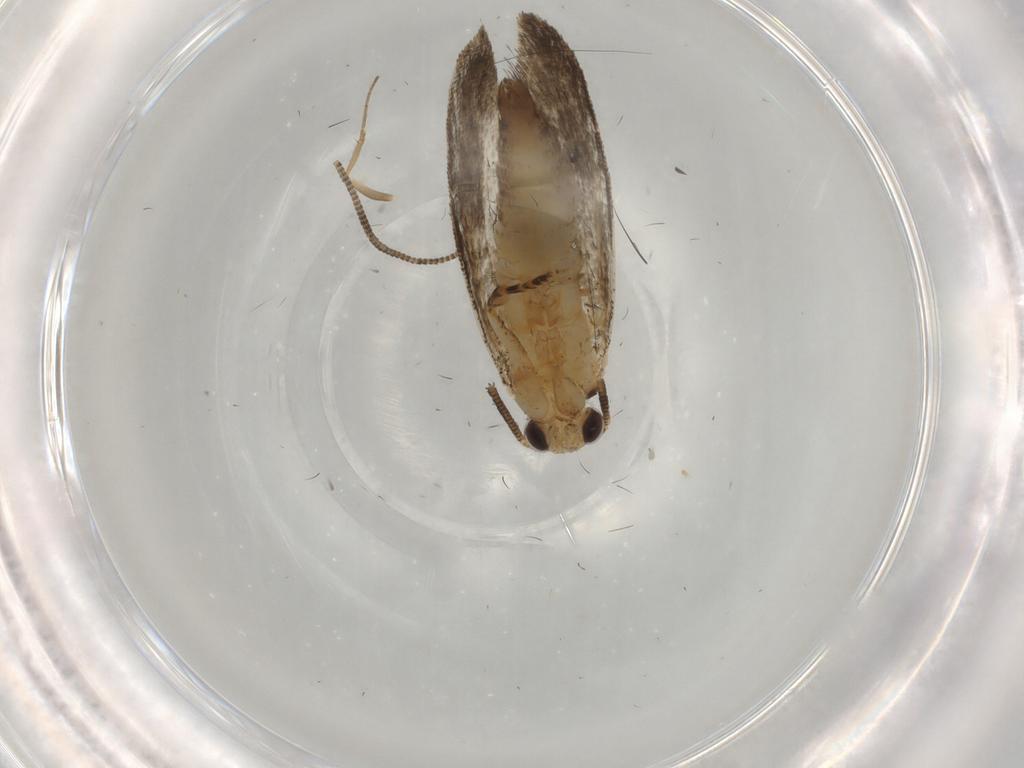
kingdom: Animalia
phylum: Arthropoda
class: Insecta
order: Lepidoptera
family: Tineidae
